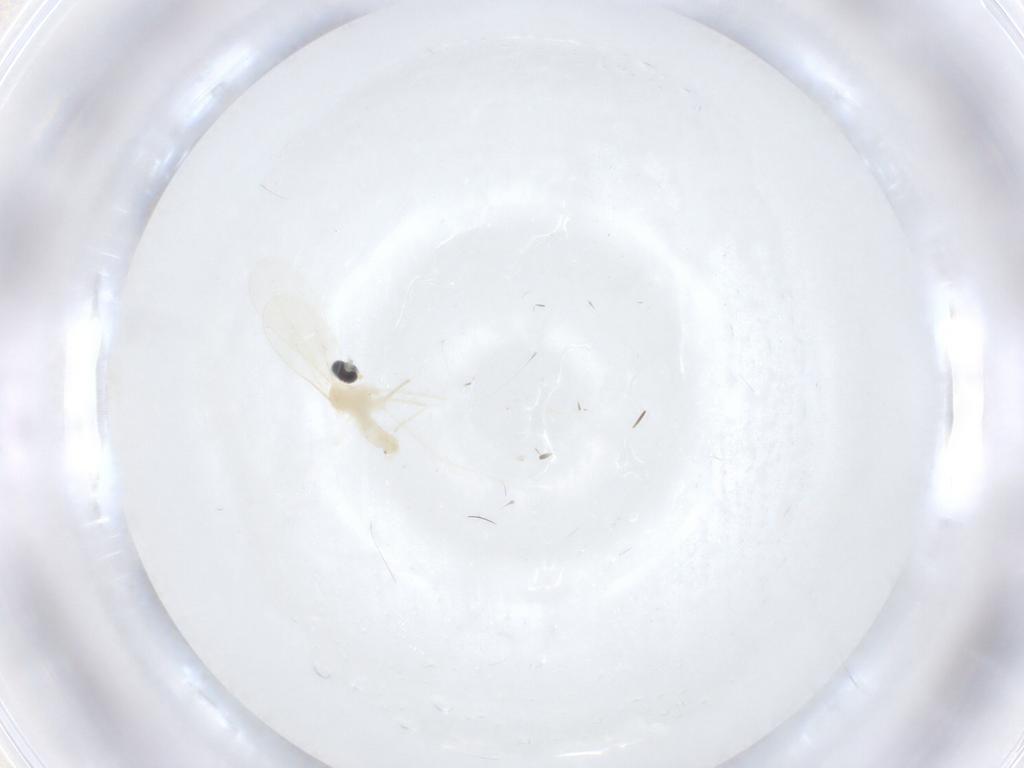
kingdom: Animalia
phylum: Arthropoda
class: Insecta
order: Diptera
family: Cecidomyiidae
